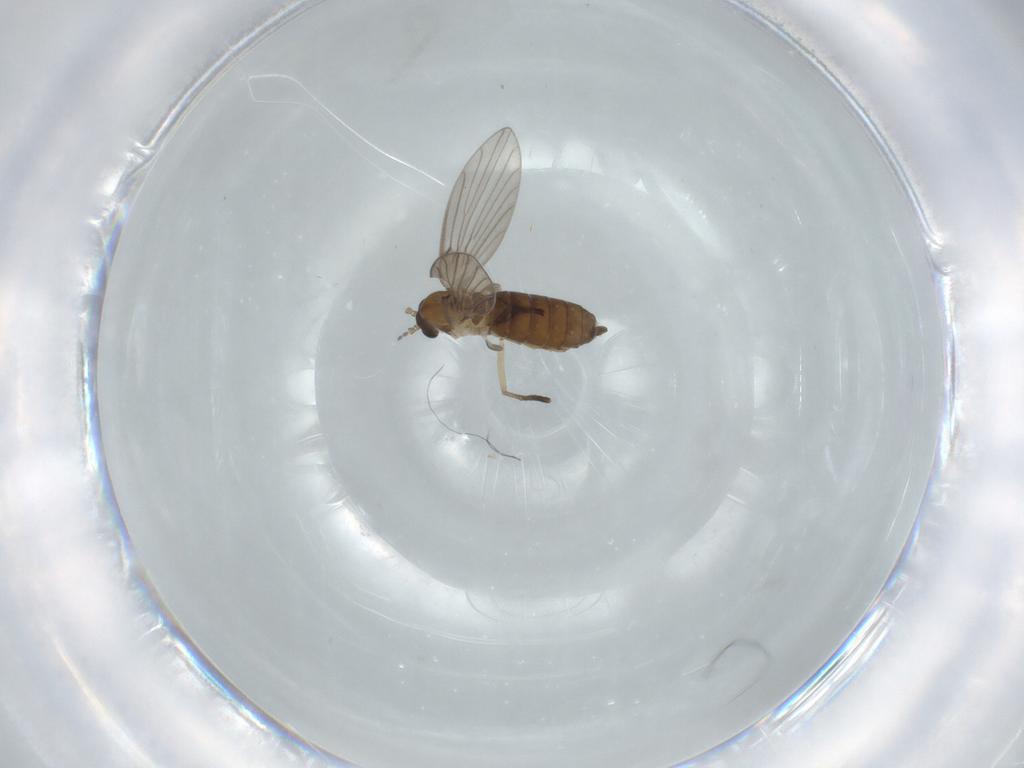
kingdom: Animalia
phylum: Arthropoda
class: Insecta
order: Diptera
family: Psychodidae
